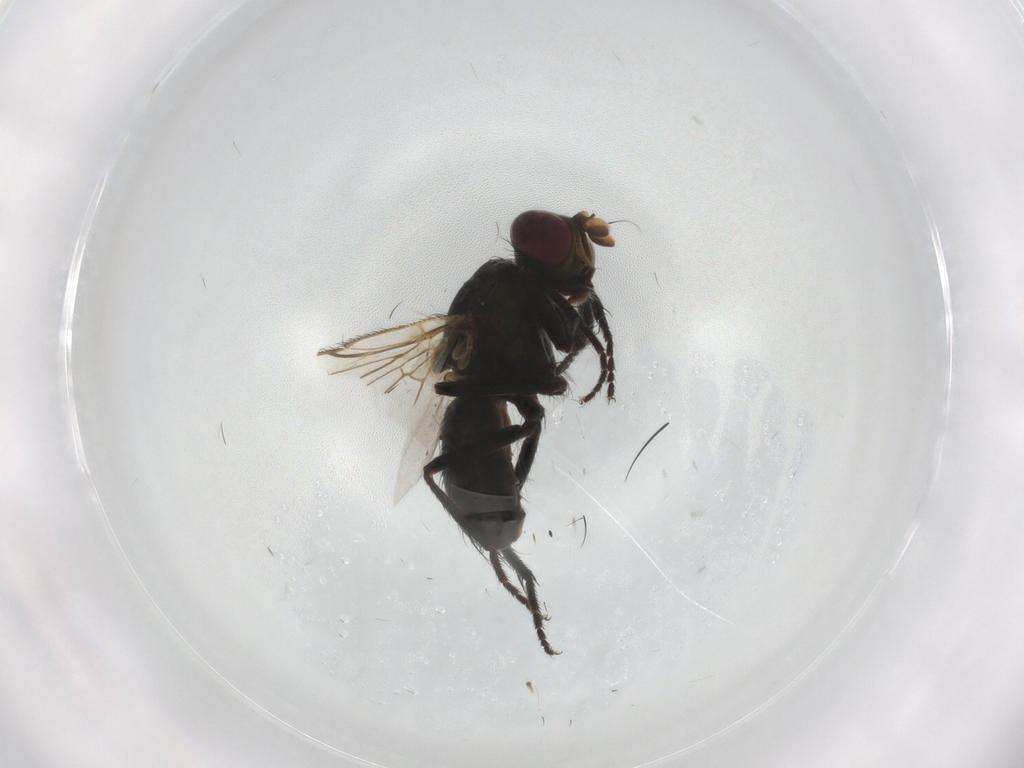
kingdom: Animalia
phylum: Arthropoda
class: Insecta
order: Diptera
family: Muscidae
